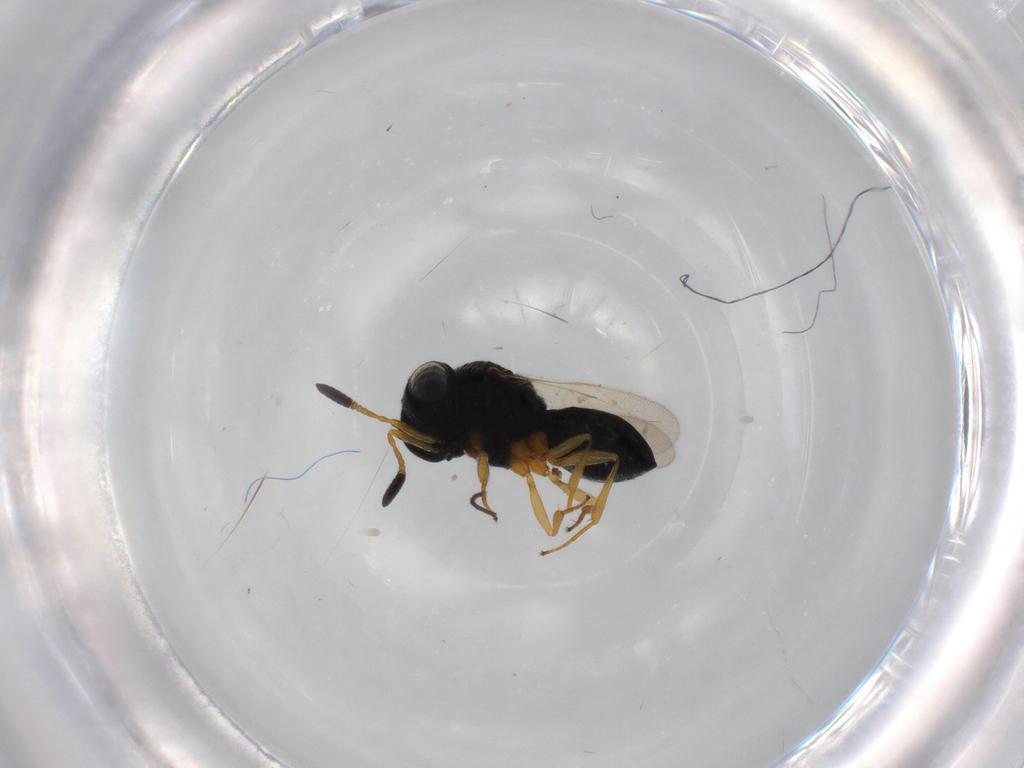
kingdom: Animalia
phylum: Arthropoda
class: Insecta
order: Hymenoptera
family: Scelionidae
